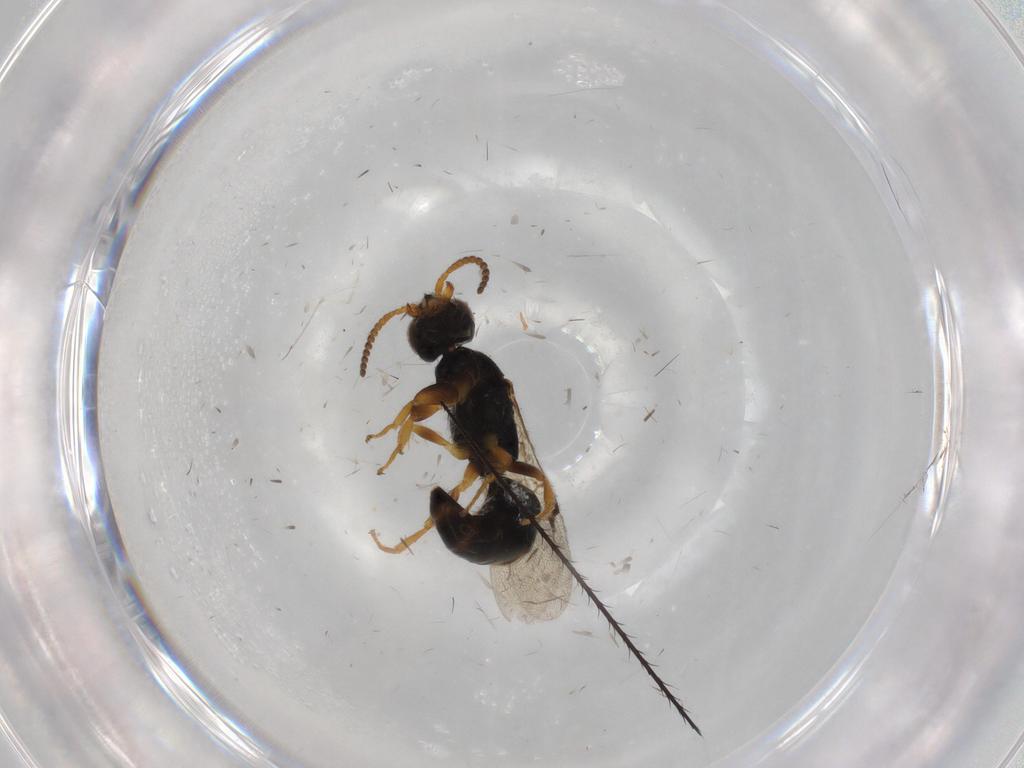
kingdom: Animalia
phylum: Arthropoda
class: Insecta
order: Hymenoptera
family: Bethylidae
